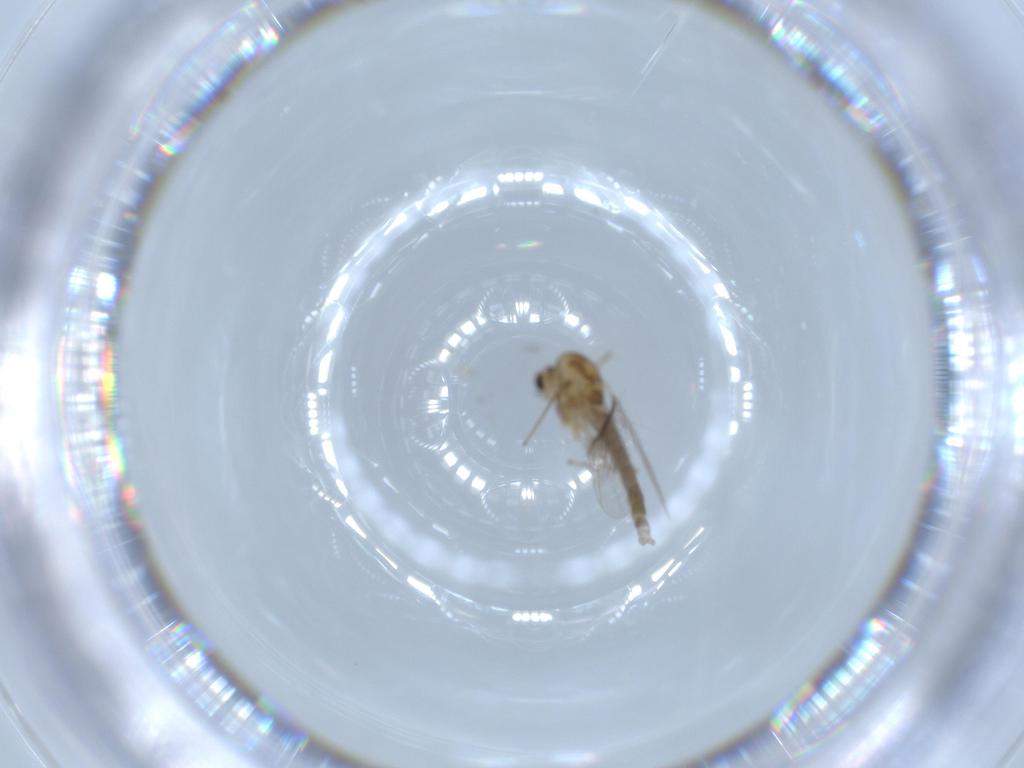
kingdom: Animalia
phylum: Arthropoda
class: Insecta
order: Diptera
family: Chironomidae
